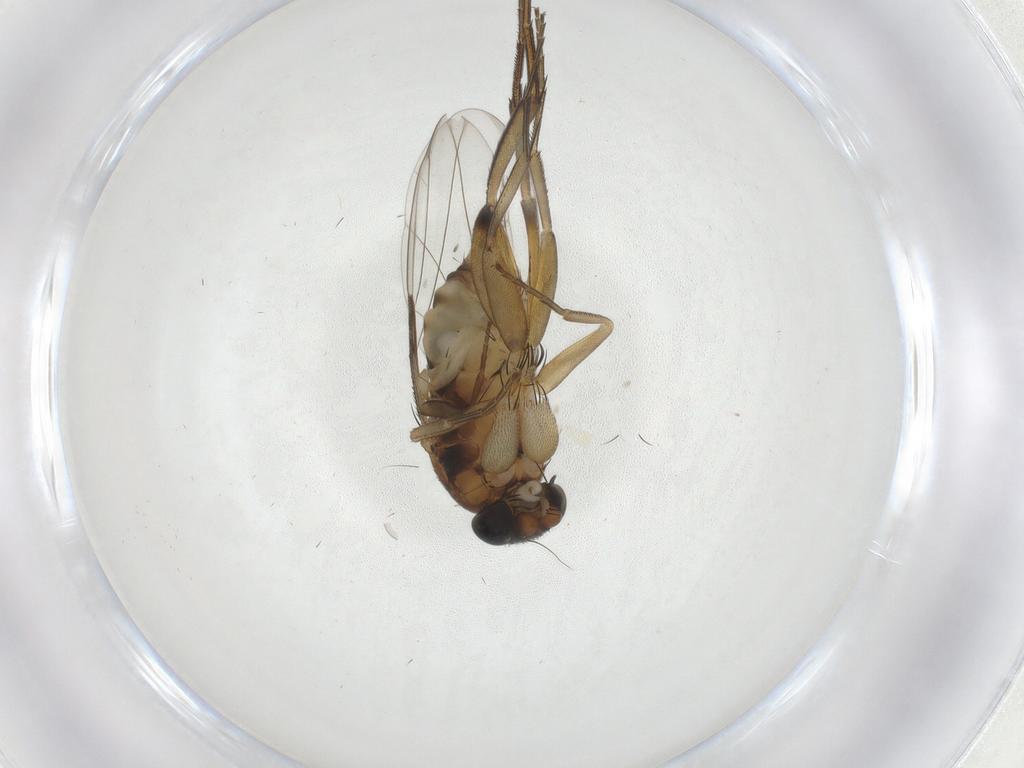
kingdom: Animalia
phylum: Arthropoda
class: Insecta
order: Diptera
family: Phoridae
